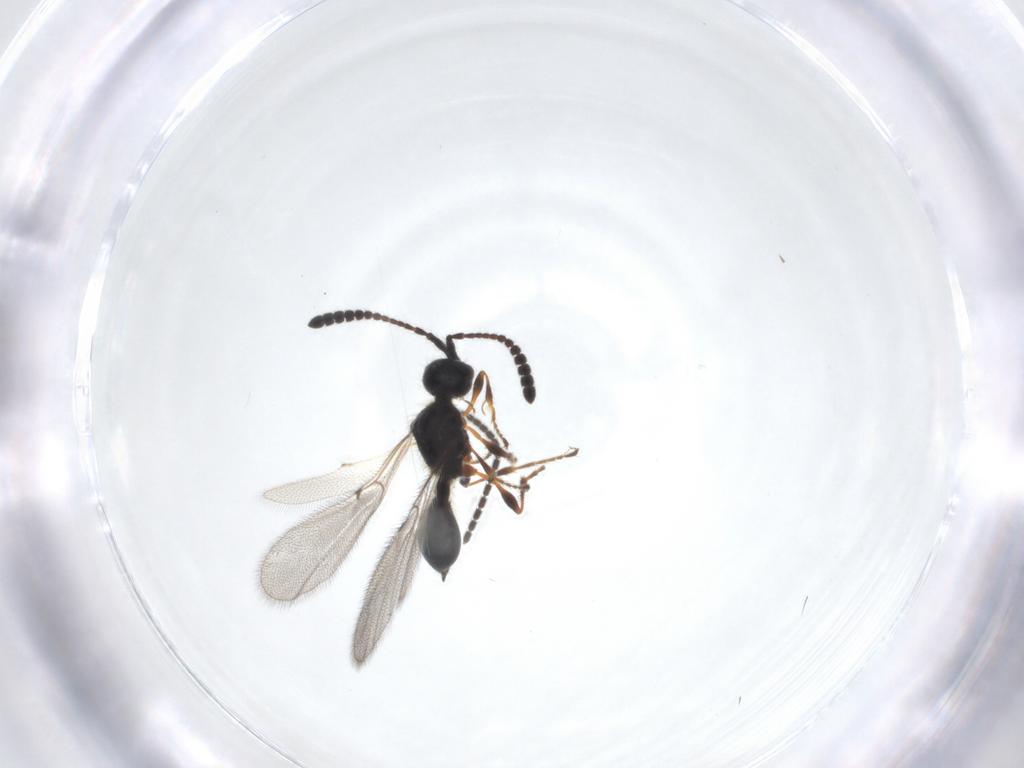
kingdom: Animalia
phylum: Arthropoda
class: Insecta
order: Hymenoptera
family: Diapriidae
